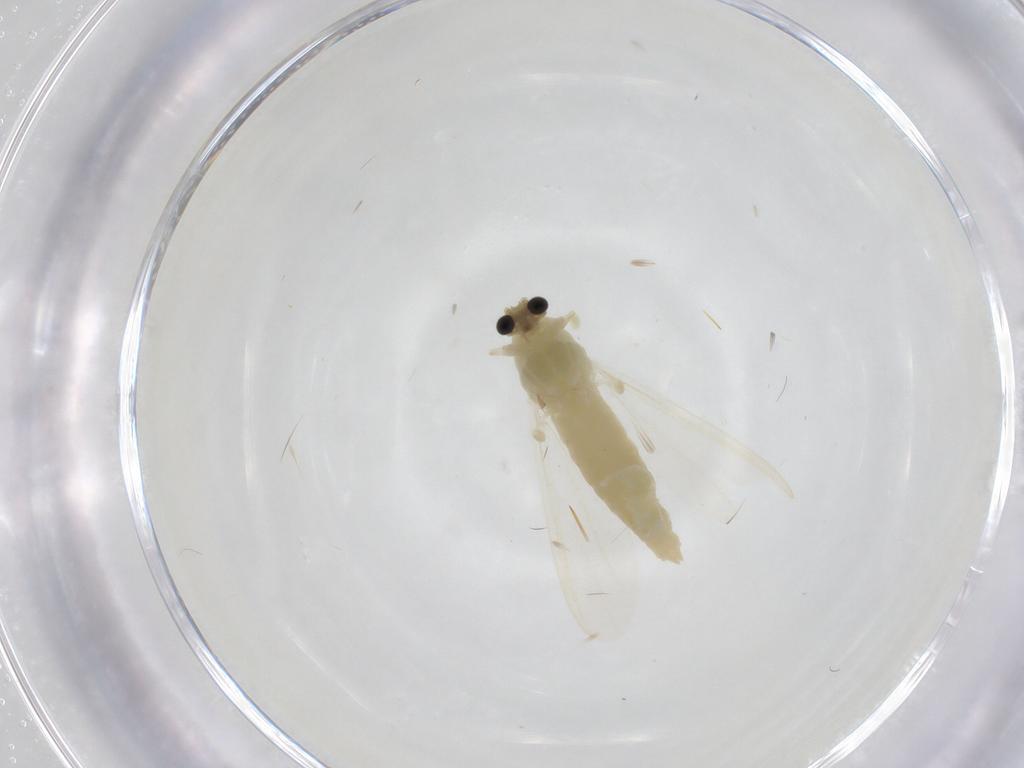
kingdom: Animalia
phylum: Arthropoda
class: Insecta
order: Diptera
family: Chironomidae
